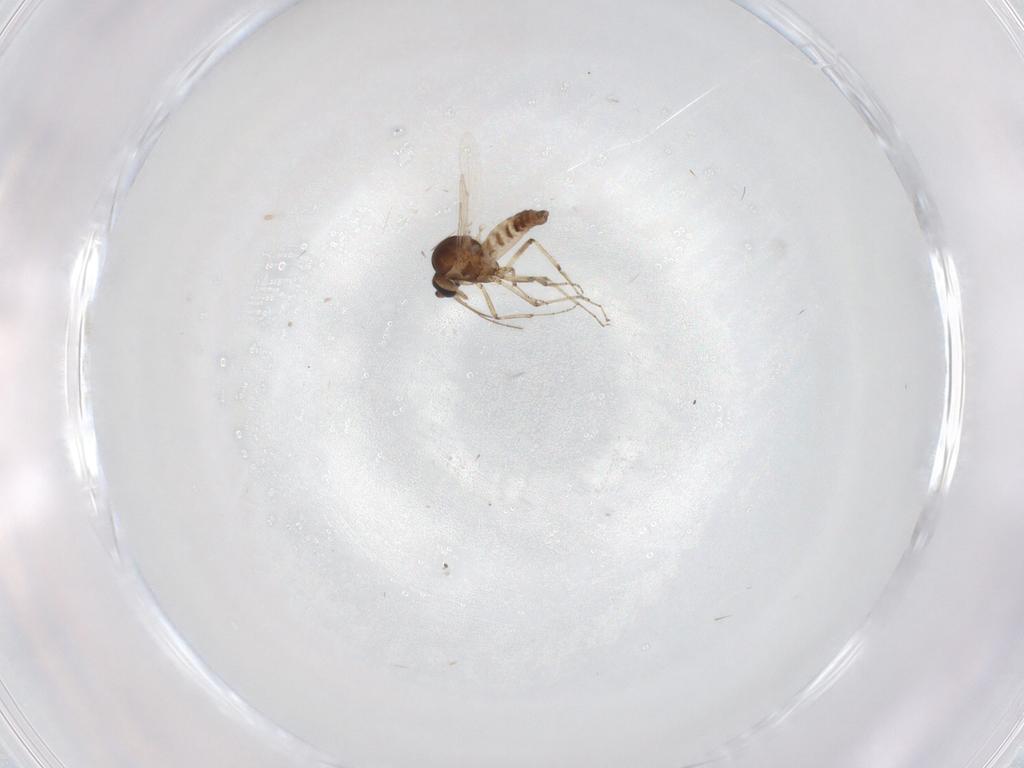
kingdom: Animalia
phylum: Arthropoda
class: Insecta
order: Diptera
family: Ceratopogonidae
